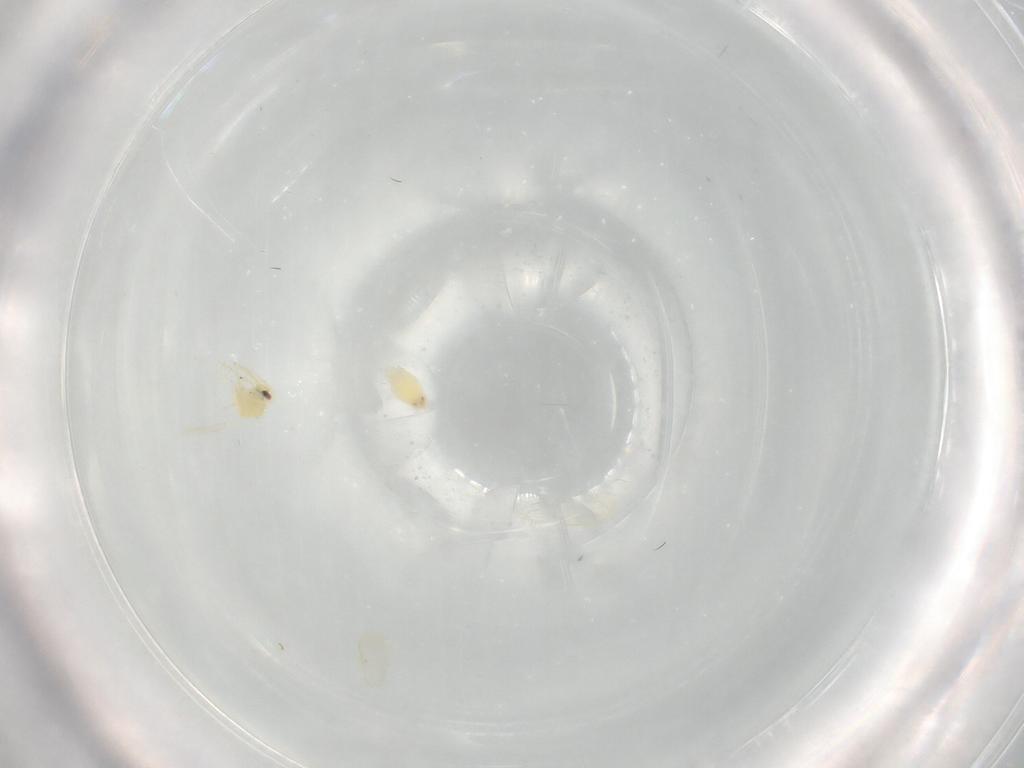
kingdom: Animalia
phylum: Arthropoda
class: Insecta
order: Hemiptera
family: Aleyrodidae
